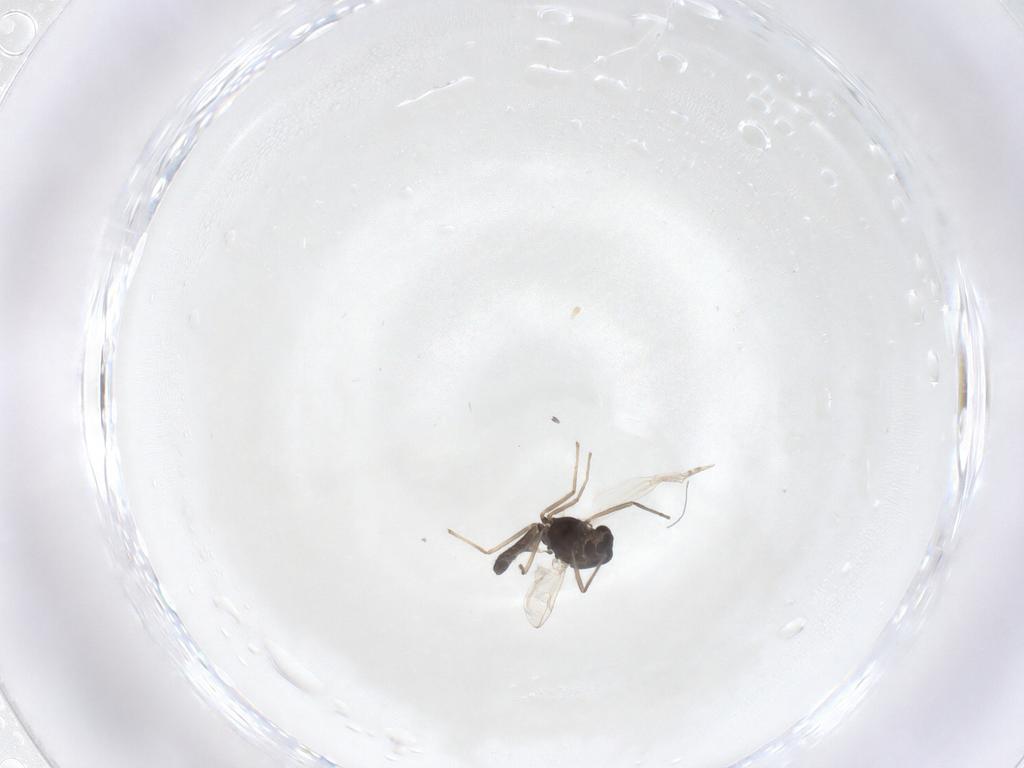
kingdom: Animalia
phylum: Arthropoda
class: Insecta
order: Diptera
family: Chironomidae
